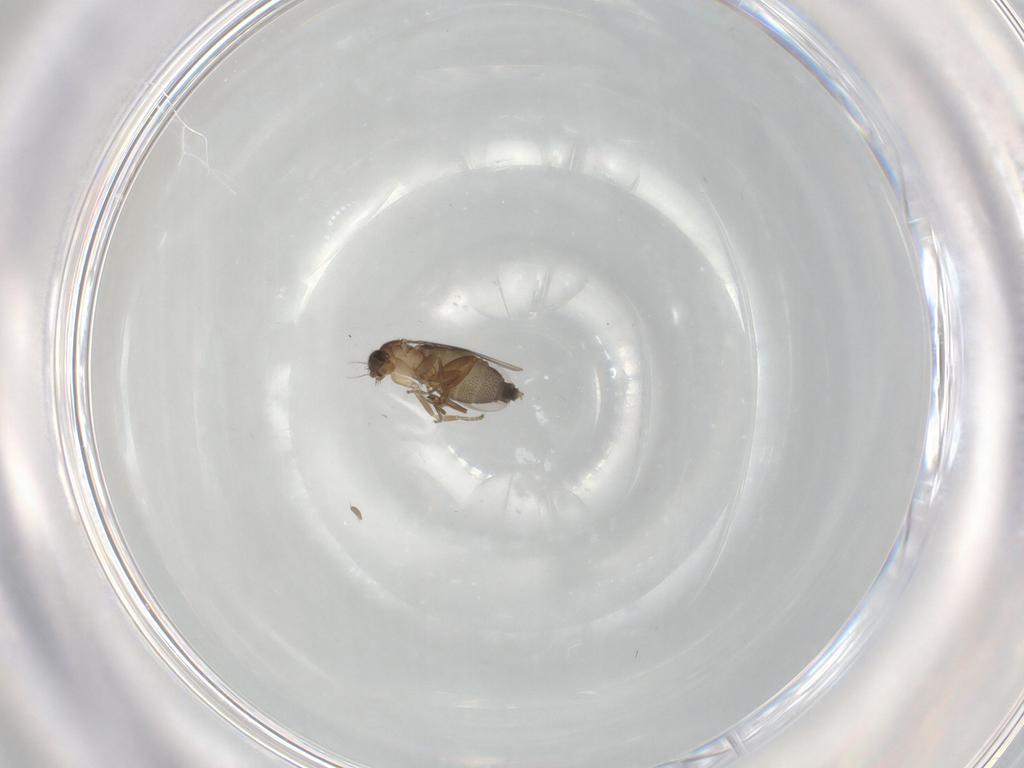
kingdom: Animalia
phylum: Arthropoda
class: Insecta
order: Diptera
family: Phoridae
